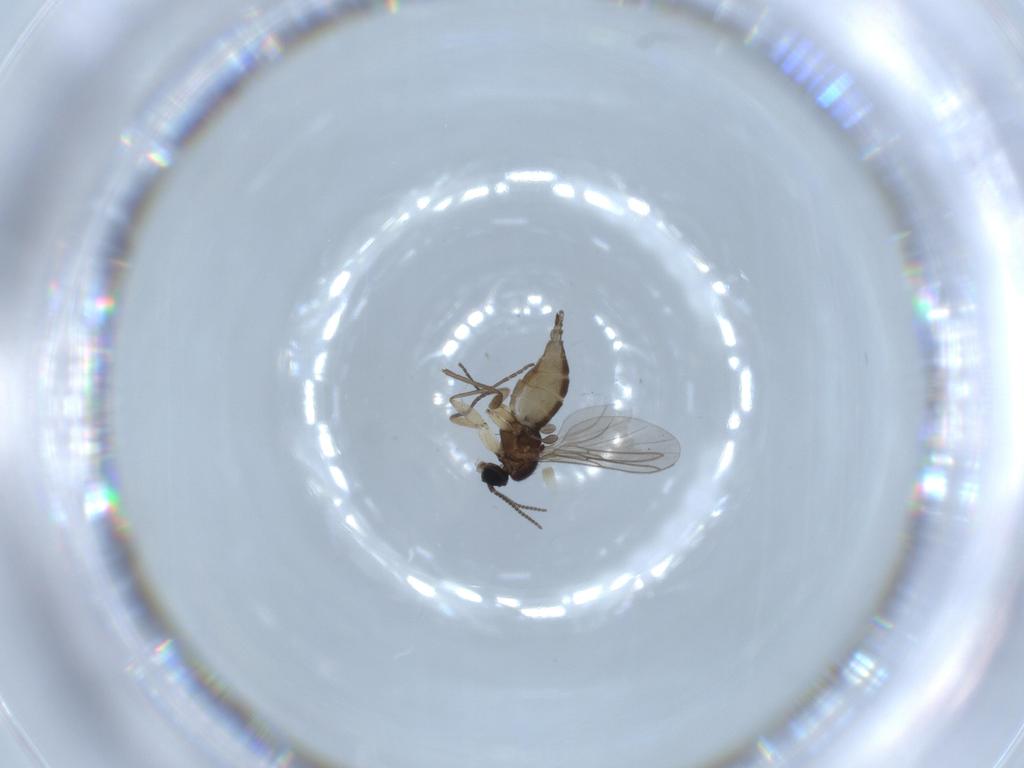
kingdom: Animalia
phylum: Arthropoda
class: Insecta
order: Diptera
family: Sciaridae
